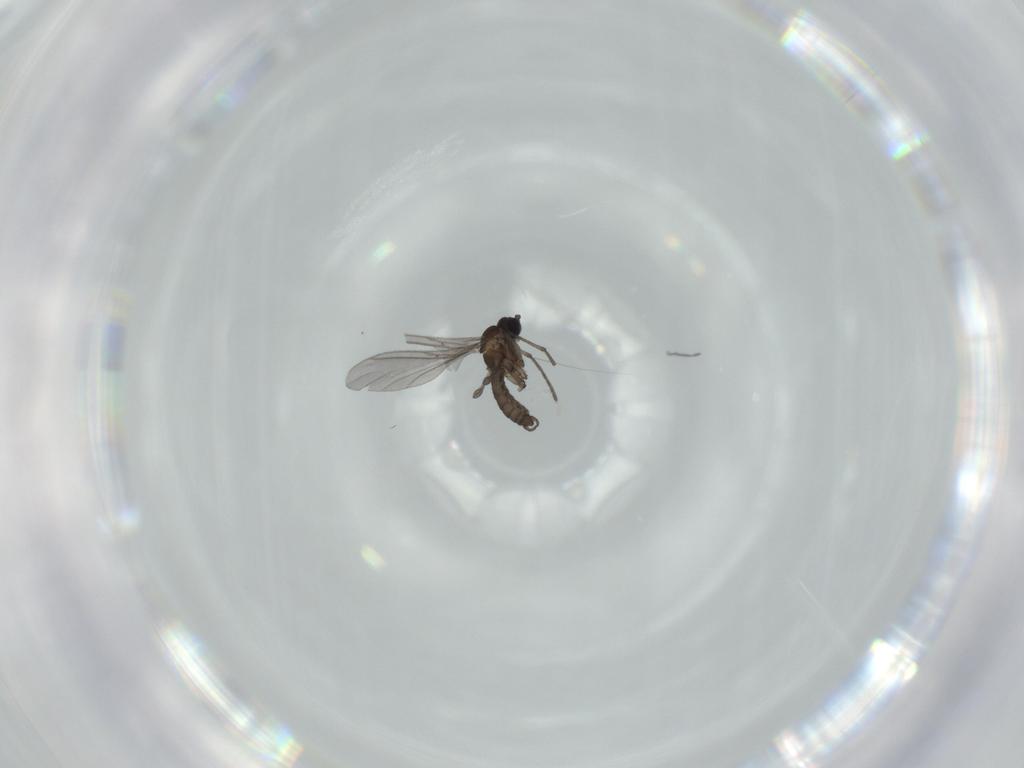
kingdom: Animalia
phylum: Arthropoda
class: Insecta
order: Diptera
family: Sciaridae
